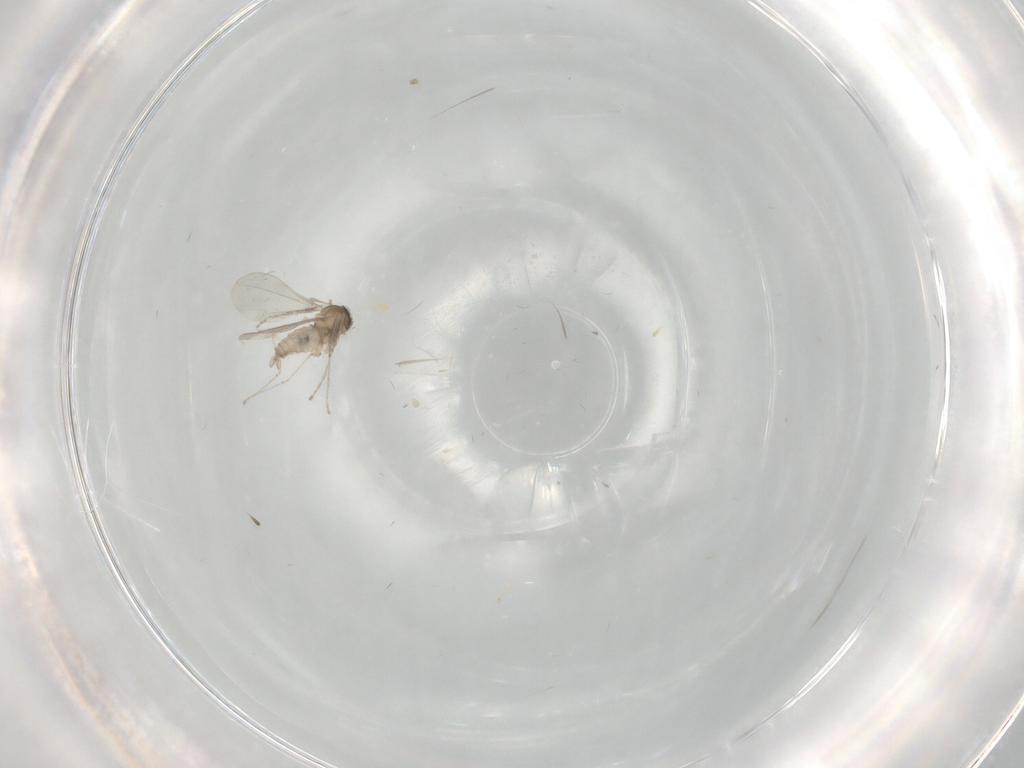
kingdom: Animalia
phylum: Arthropoda
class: Insecta
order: Diptera
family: Cecidomyiidae
